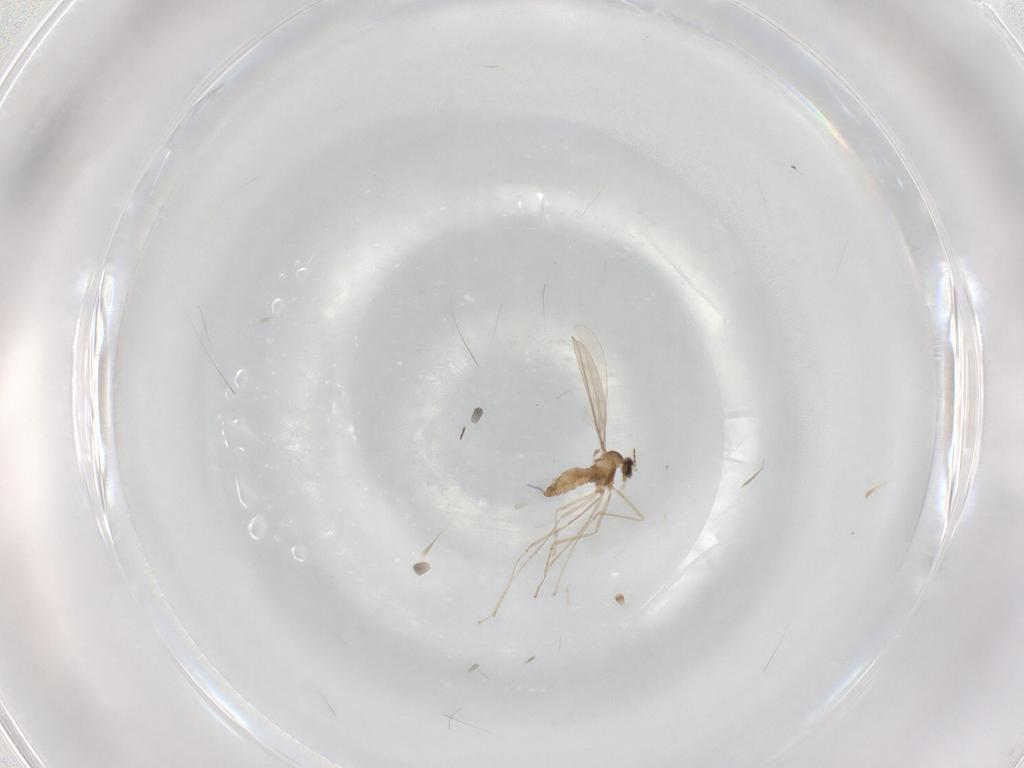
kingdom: Animalia
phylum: Arthropoda
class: Insecta
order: Diptera
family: Cecidomyiidae
